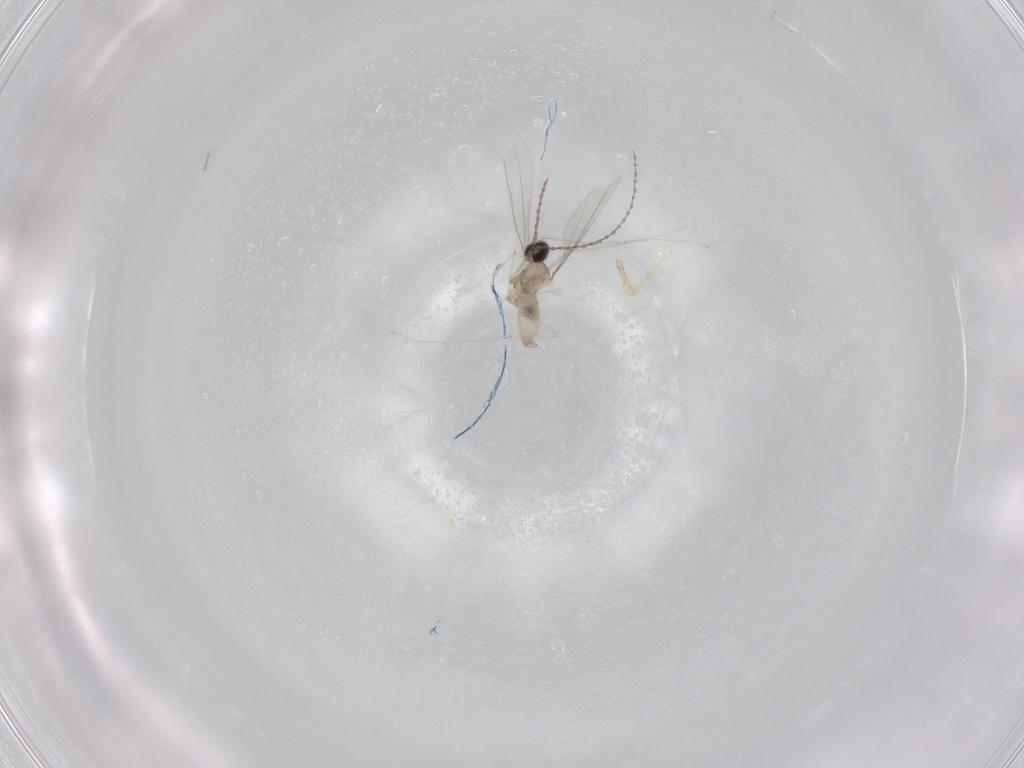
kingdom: Animalia
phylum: Arthropoda
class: Insecta
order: Diptera
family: Cecidomyiidae
